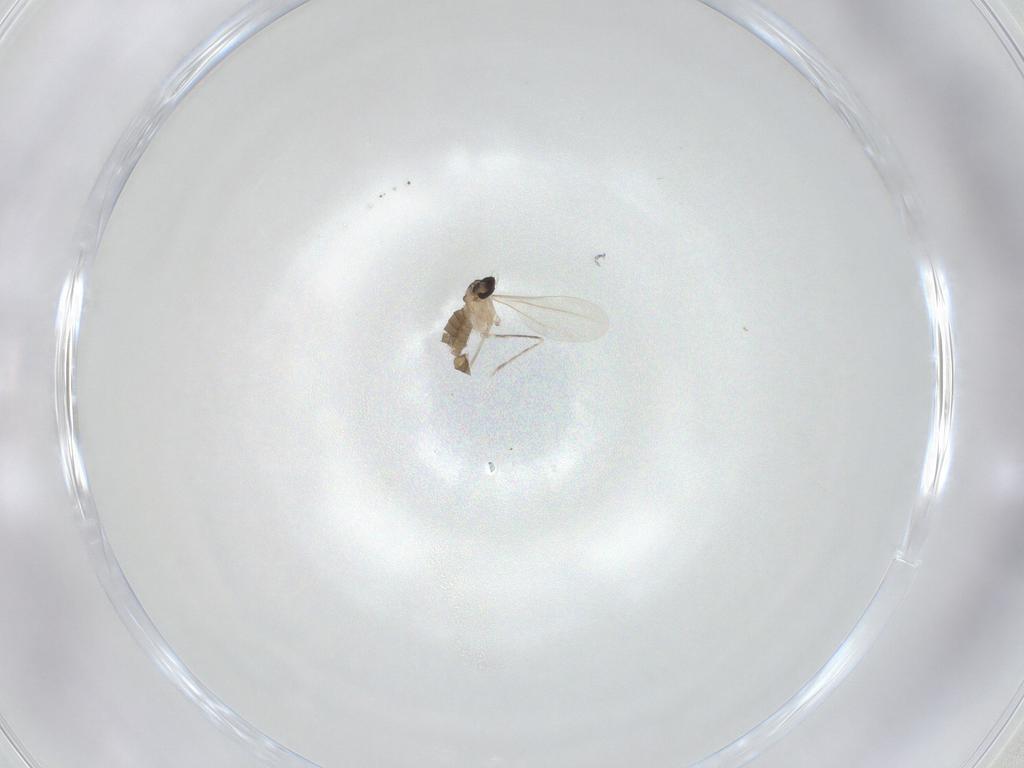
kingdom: Animalia
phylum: Arthropoda
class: Insecta
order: Diptera
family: Cecidomyiidae
